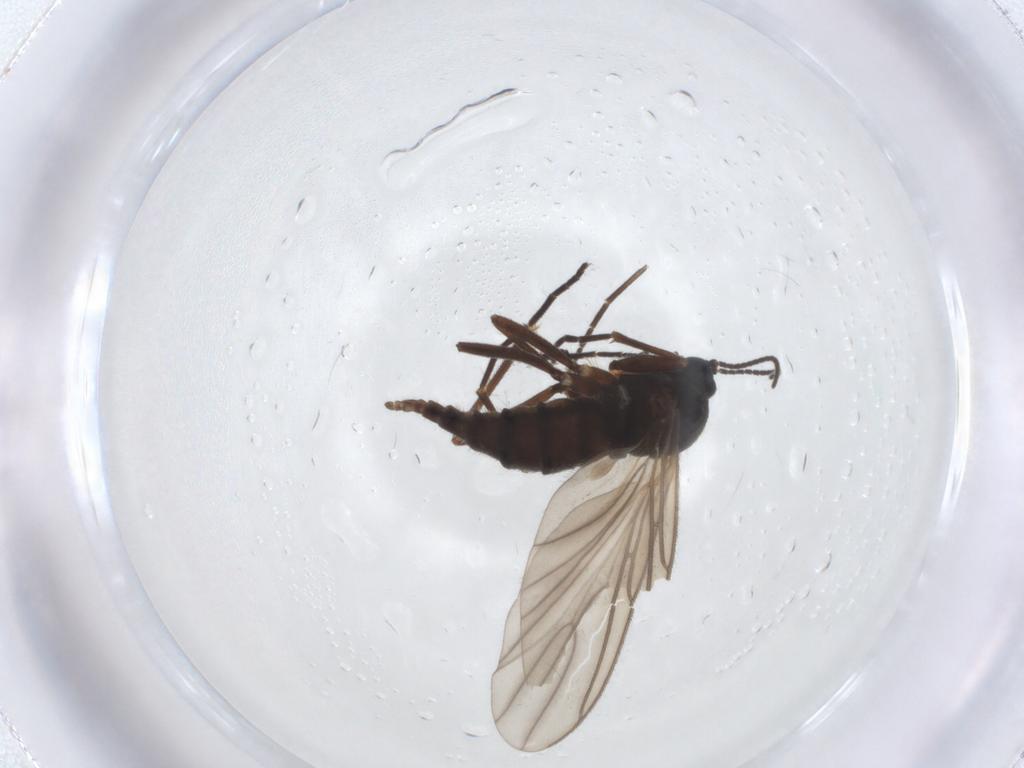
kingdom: Animalia
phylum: Arthropoda
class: Insecta
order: Diptera
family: Sciaridae
